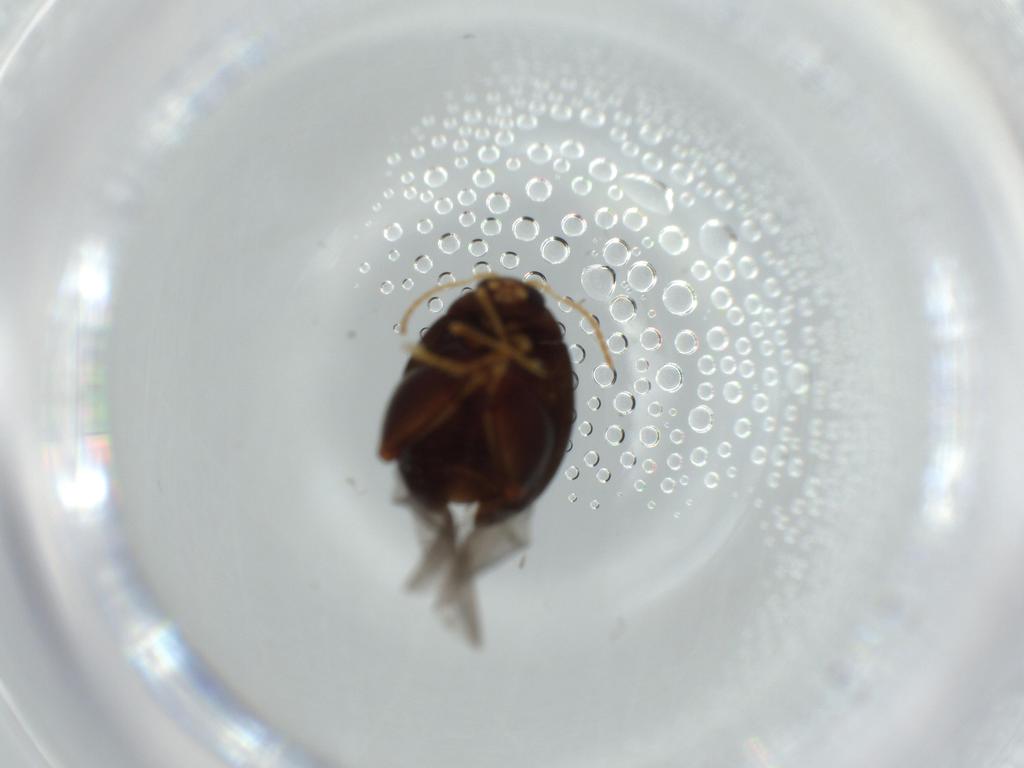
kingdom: Animalia
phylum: Arthropoda
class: Insecta
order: Coleoptera
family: Chrysomelidae
